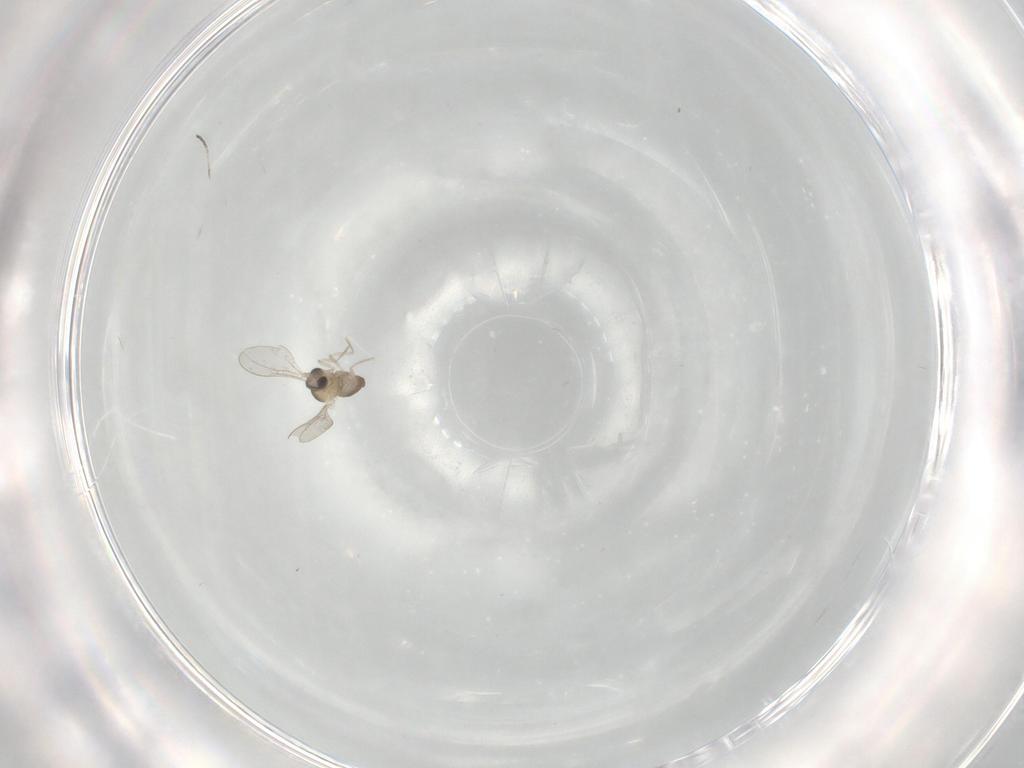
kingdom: Animalia
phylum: Arthropoda
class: Insecta
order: Diptera
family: Cecidomyiidae
